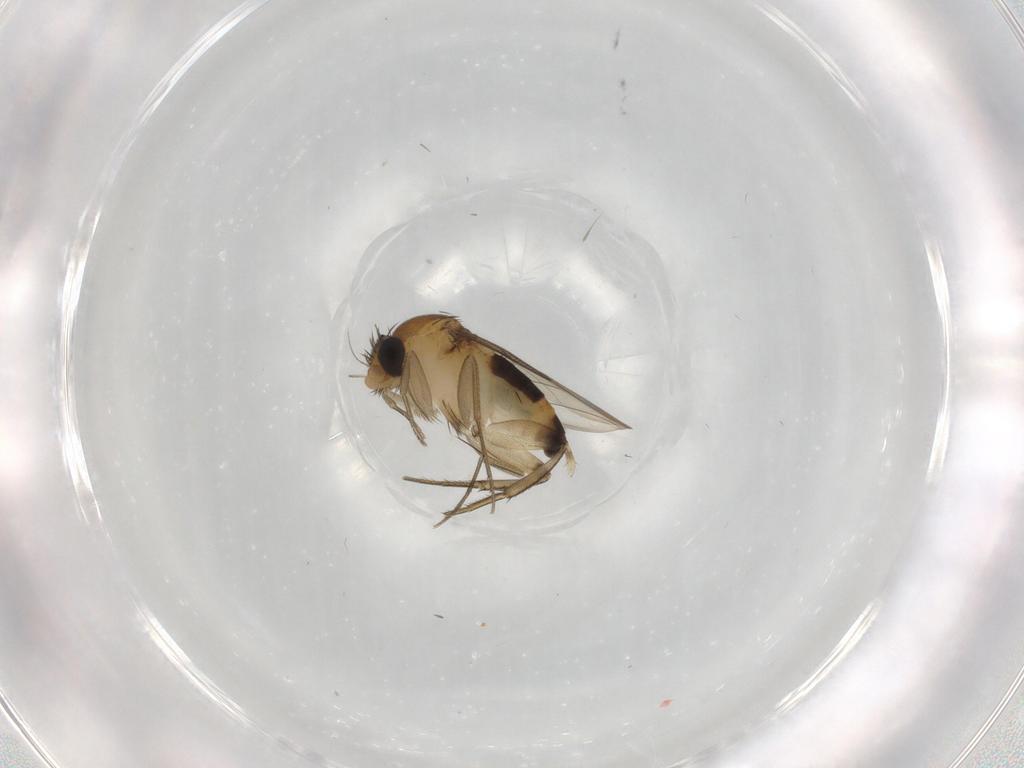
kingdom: Animalia
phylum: Arthropoda
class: Insecta
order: Diptera
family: Phoridae
